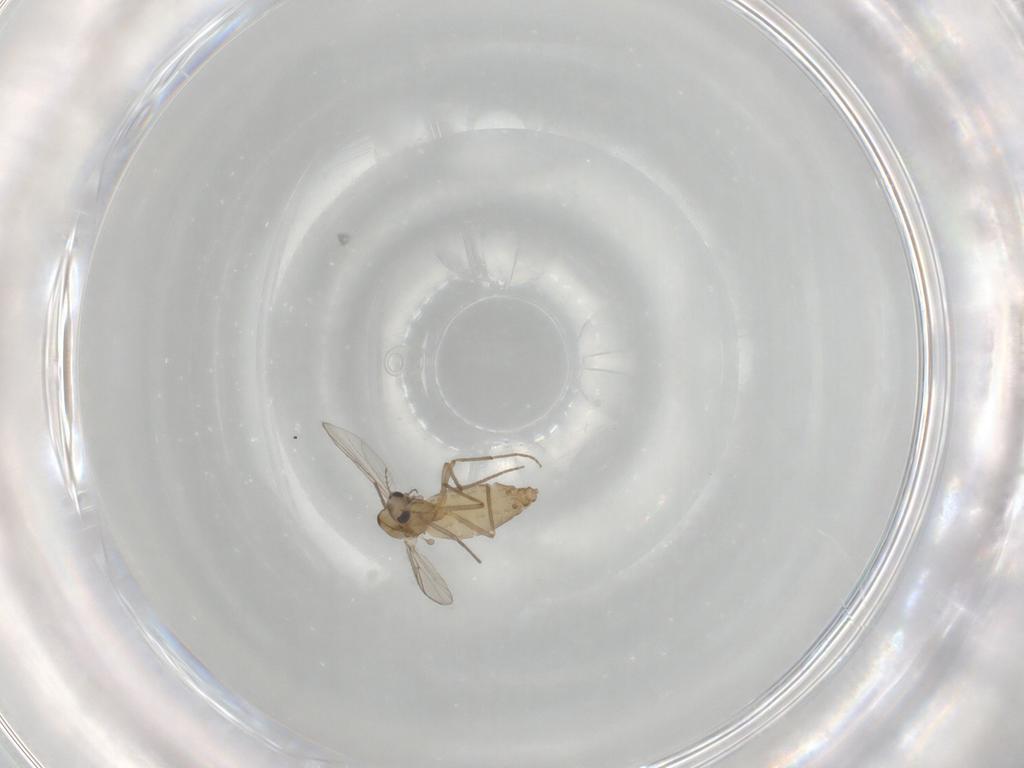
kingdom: Animalia
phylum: Arthropoda
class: Insecta
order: Diptera
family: Chironomidae
